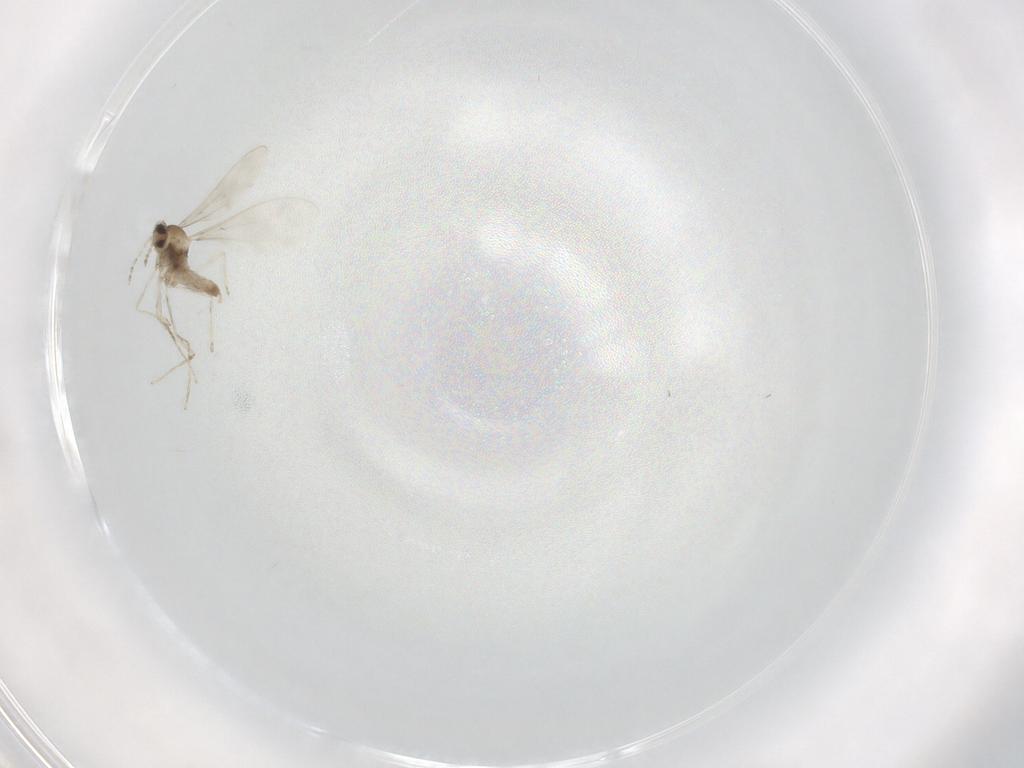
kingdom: Animalia
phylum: Arthropoda
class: Insecta
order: Diptera
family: Cecidomyiidae
